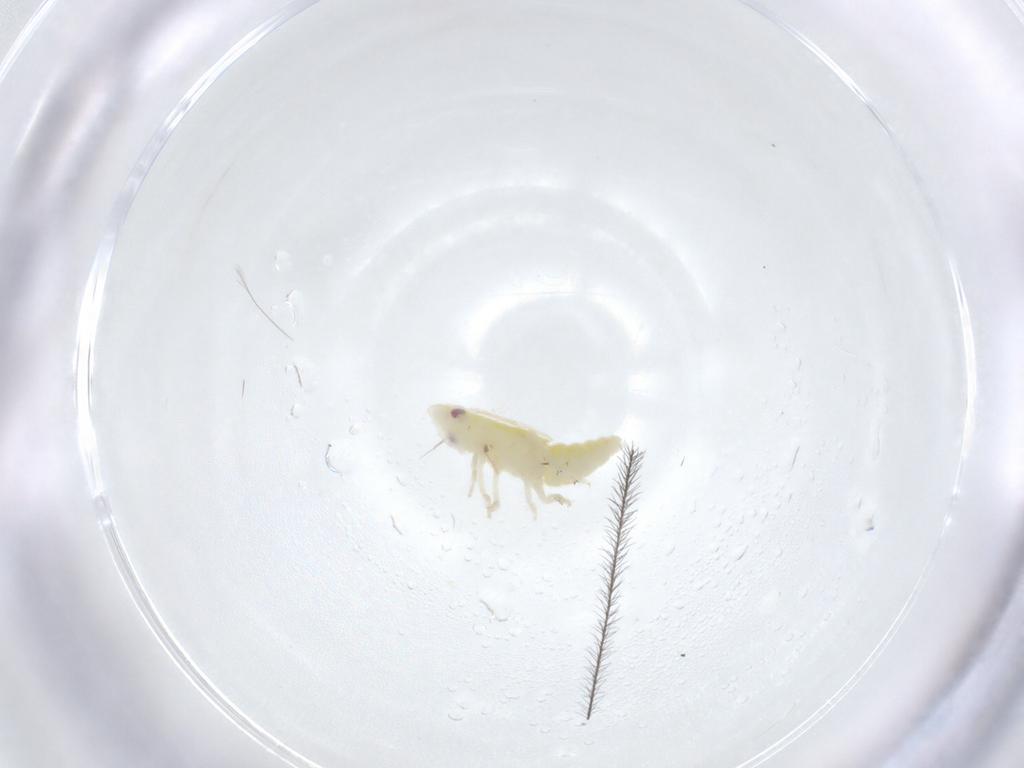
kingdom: Animalia
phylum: Arthropoda
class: Insecta
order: Hemiptera
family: Tropiduchidae
